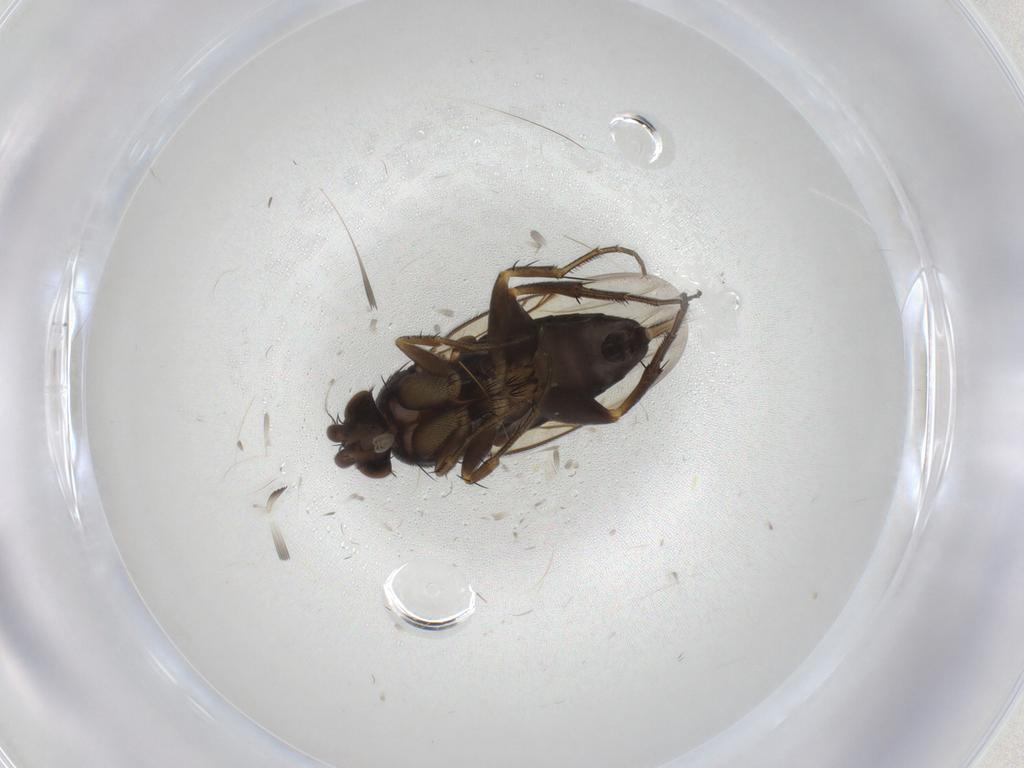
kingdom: Animalia
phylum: Arthropoda
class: Insecta
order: Diptera
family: Phoridae
